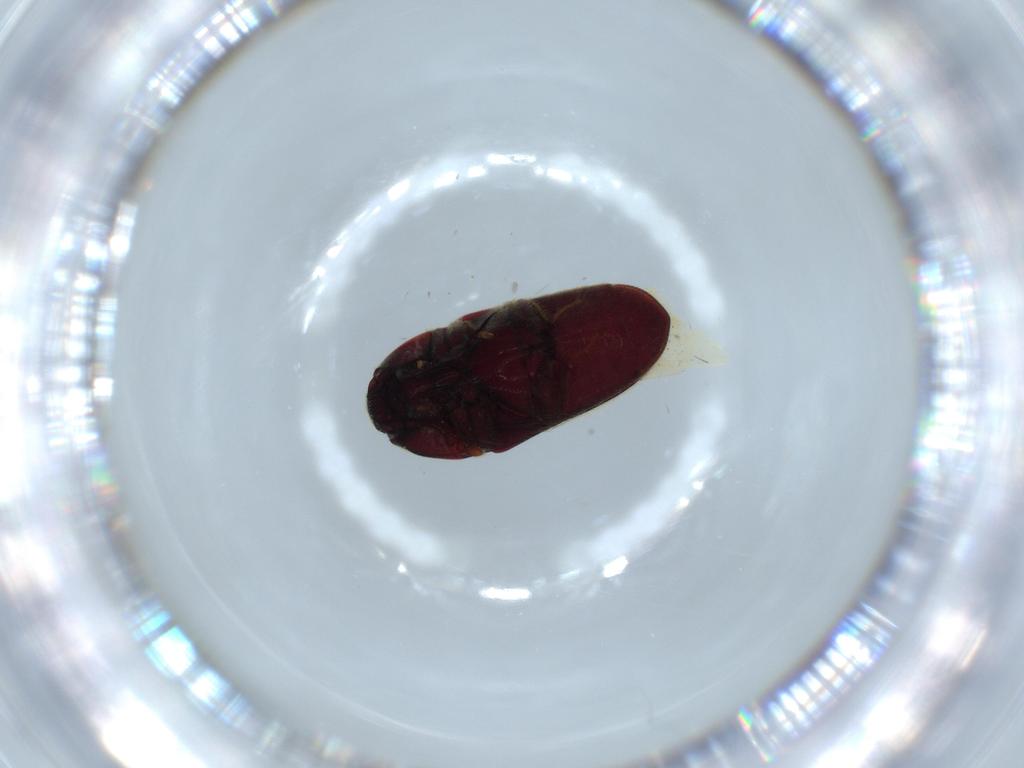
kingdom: Animalia
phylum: Arthropoda
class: Insecta
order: Coleoptera
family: Throscidae
